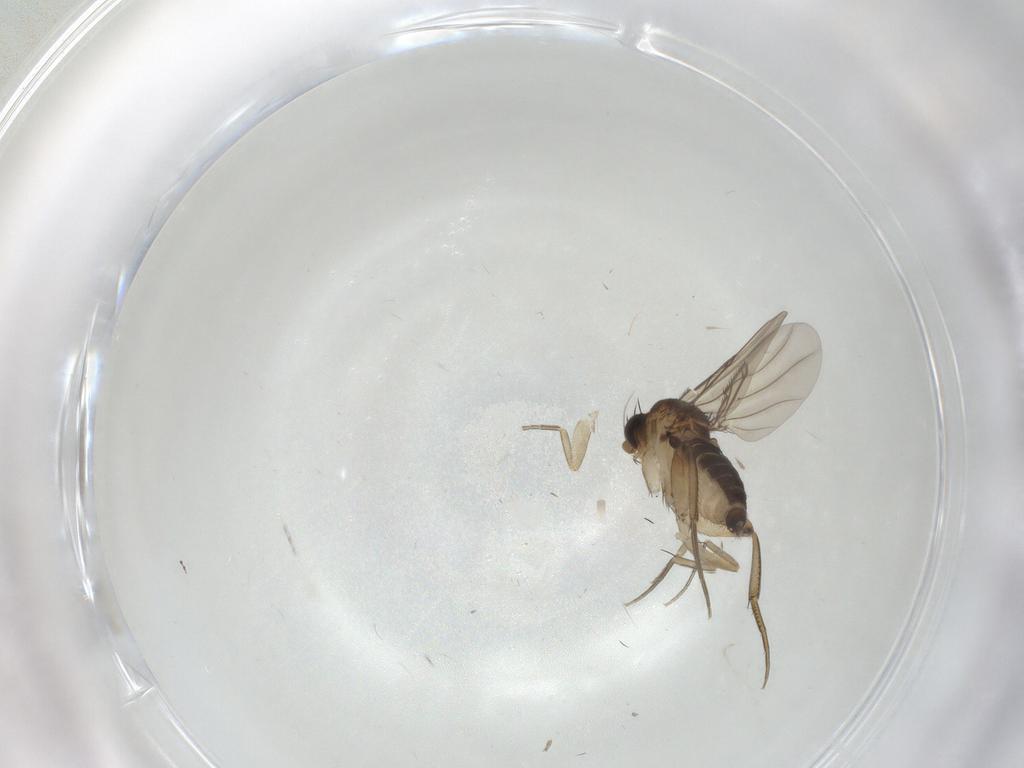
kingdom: Animalia
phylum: Arthropoda
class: Insecta
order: Diptera
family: Phoridae
